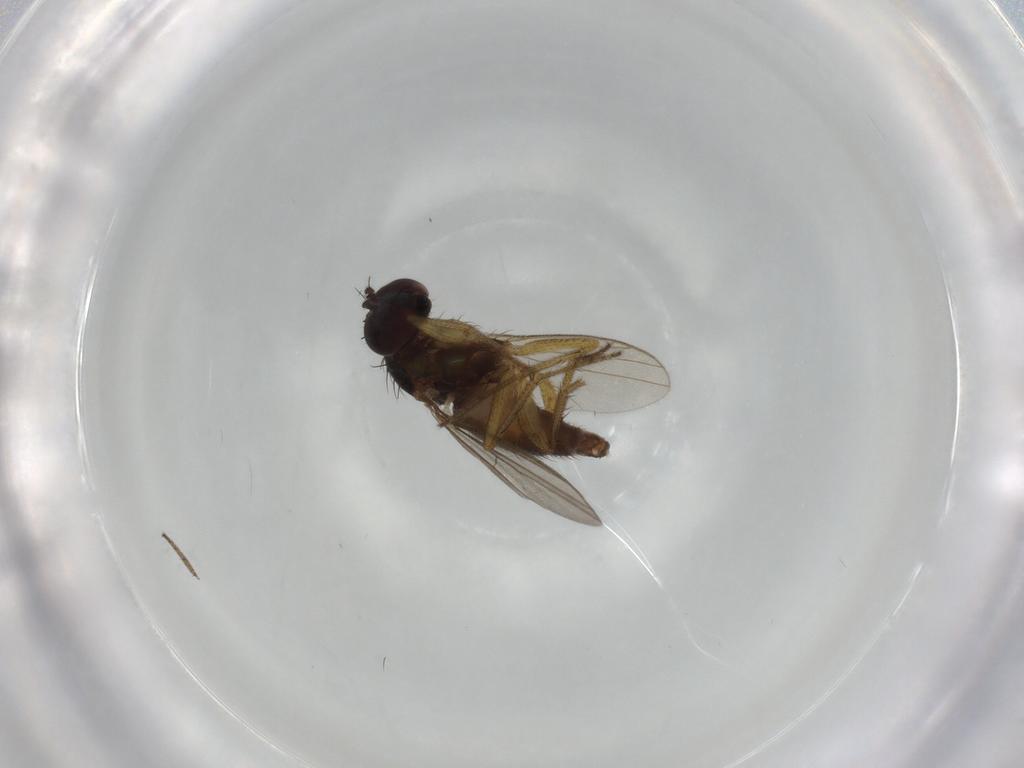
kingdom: Animalia
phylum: Arthropoda
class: Insecta
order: Diptera
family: Dolichopodidae
